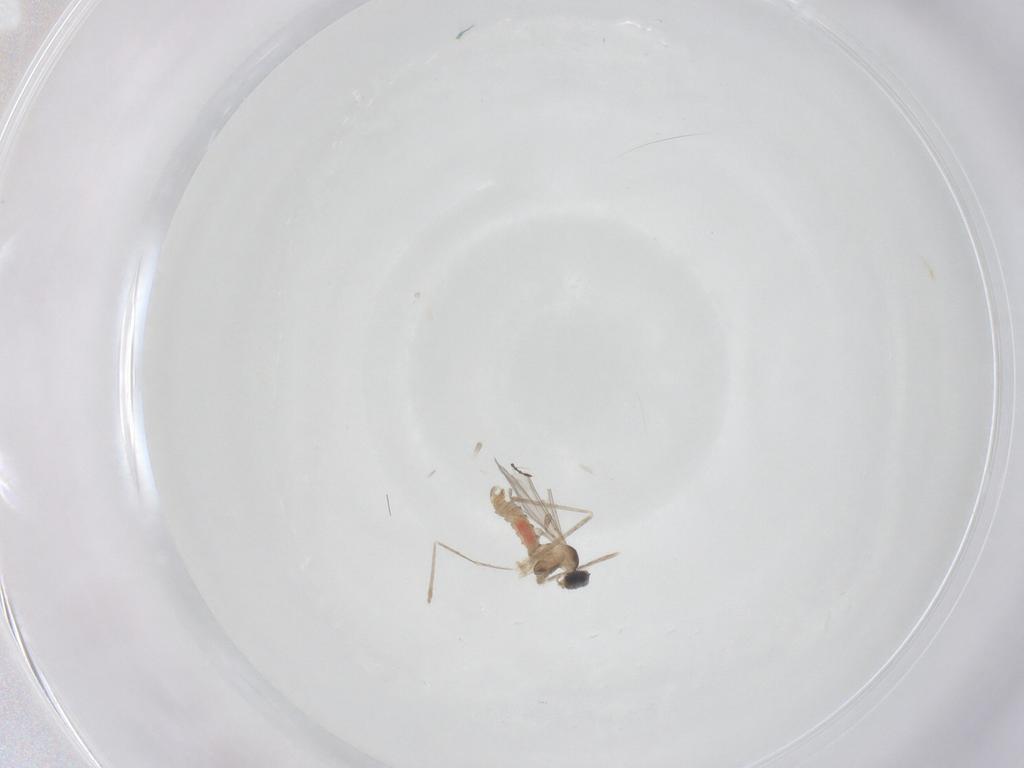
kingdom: Animalia
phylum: Arthropoda
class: Insecta
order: Diptera
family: Cecidomyiidae
